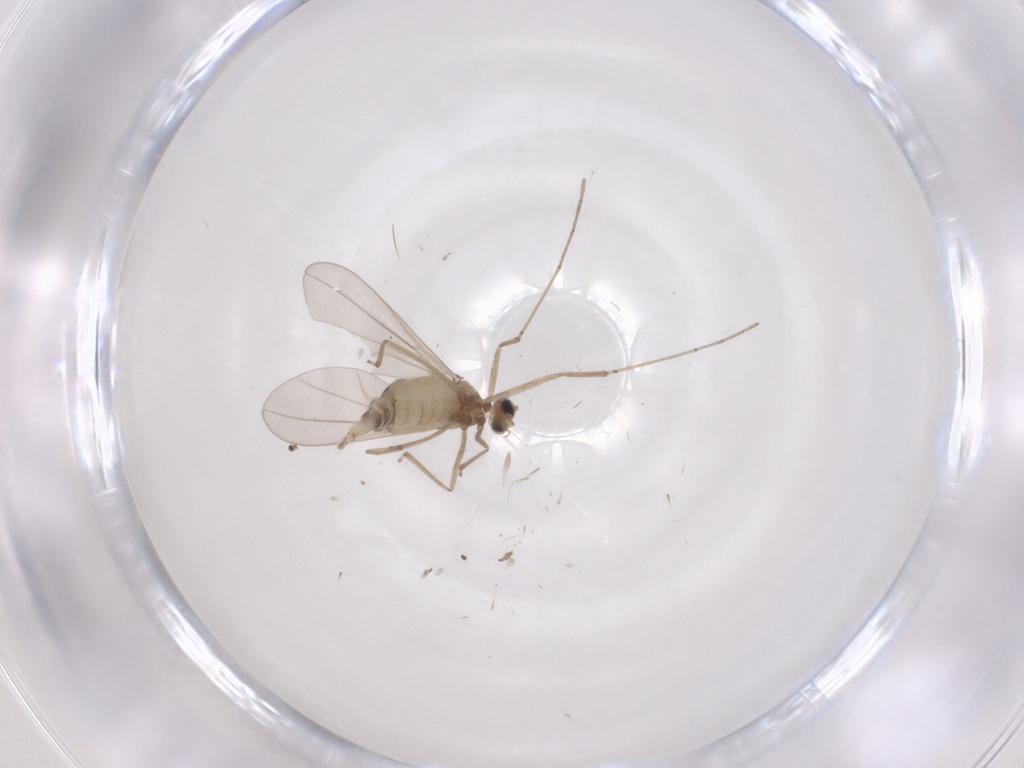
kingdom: Animalia
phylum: Arthropoda
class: Insecta
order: Diptera
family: Cecidomyiidae
